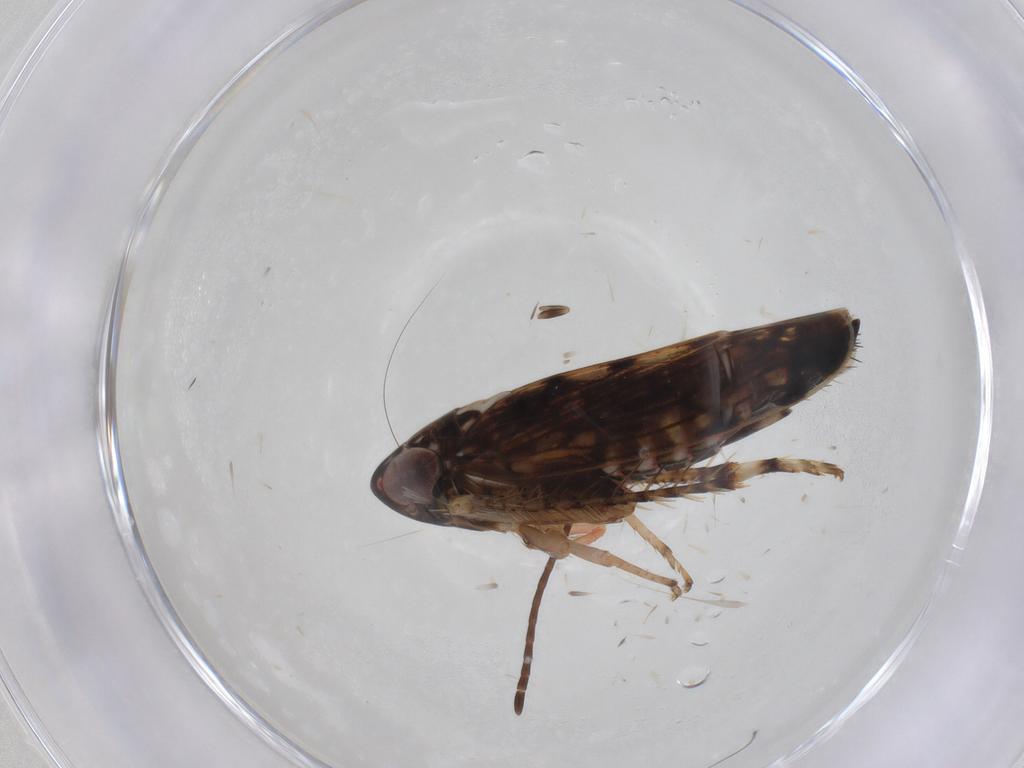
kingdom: Animalia
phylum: Arthropoda
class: Insecta
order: Hemiptera
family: Cicadellidae
